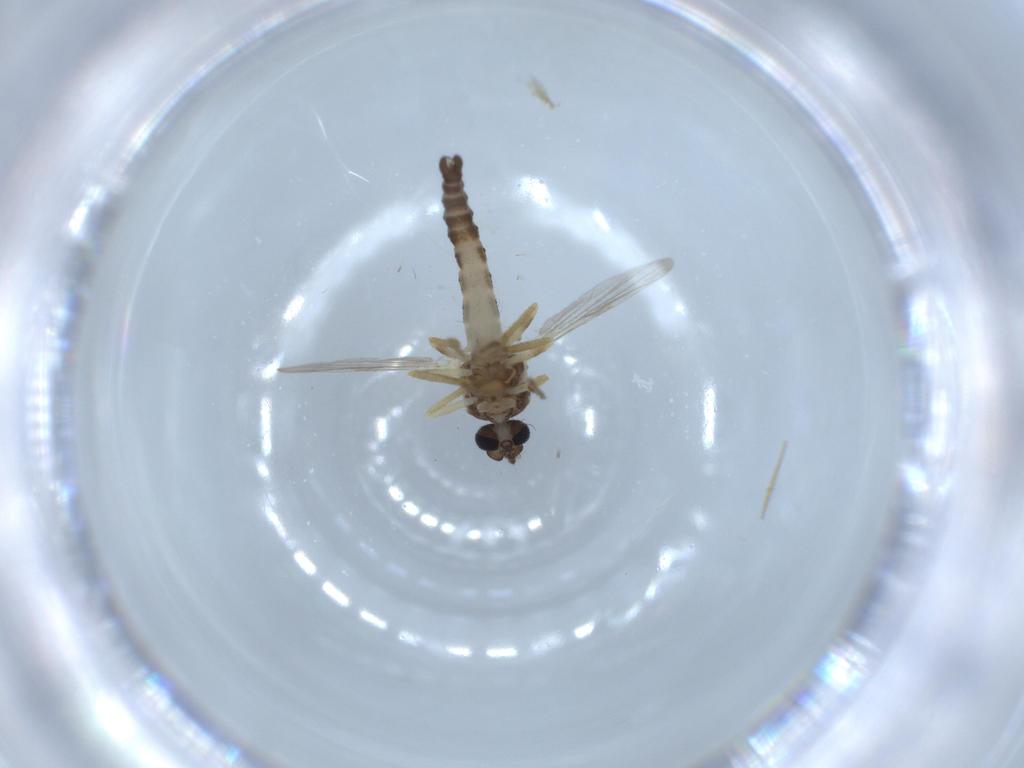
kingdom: Animalia
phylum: Arthropoda
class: Insecta
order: Diptera
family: Ceratopogonidae
